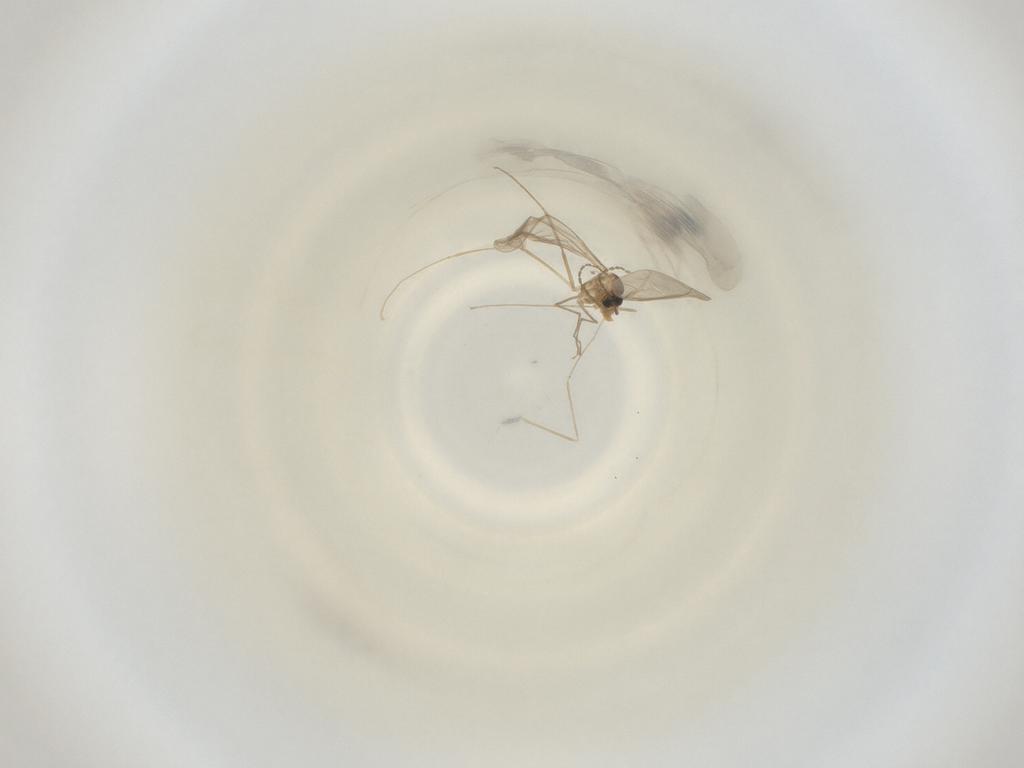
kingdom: Animalia
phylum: Arthropoda
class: Insecta
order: Diptera
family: Cecidomyiidae
